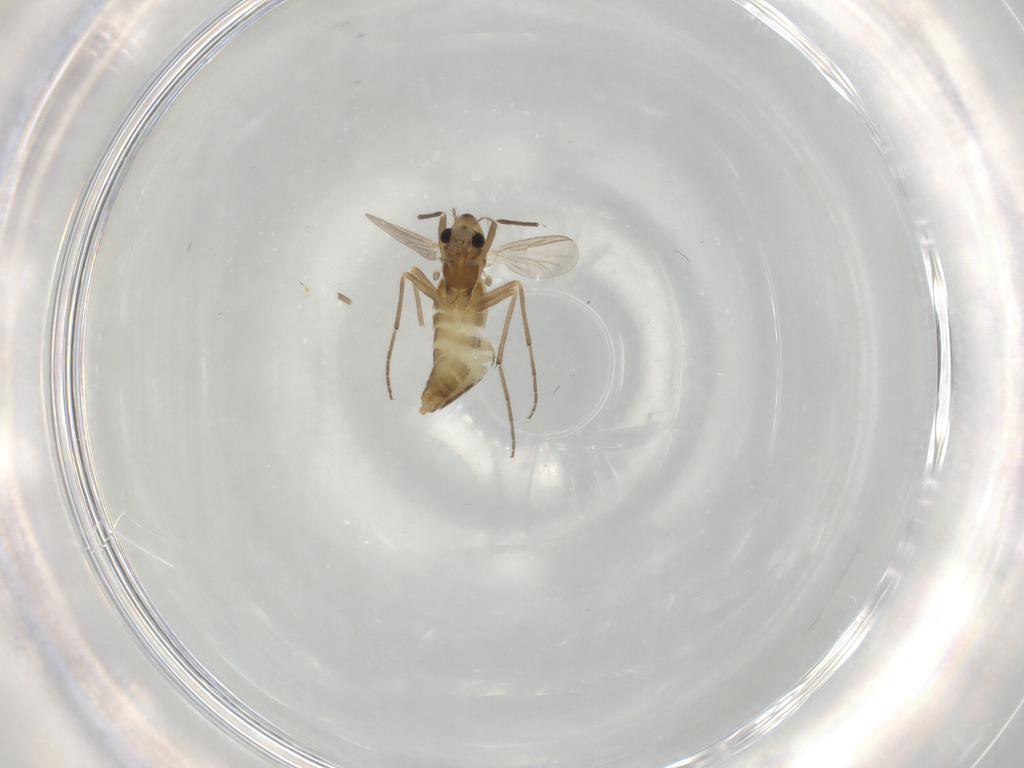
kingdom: Animalia
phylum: Arthropoda
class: Insecta
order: Diptera
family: Chironomidae
